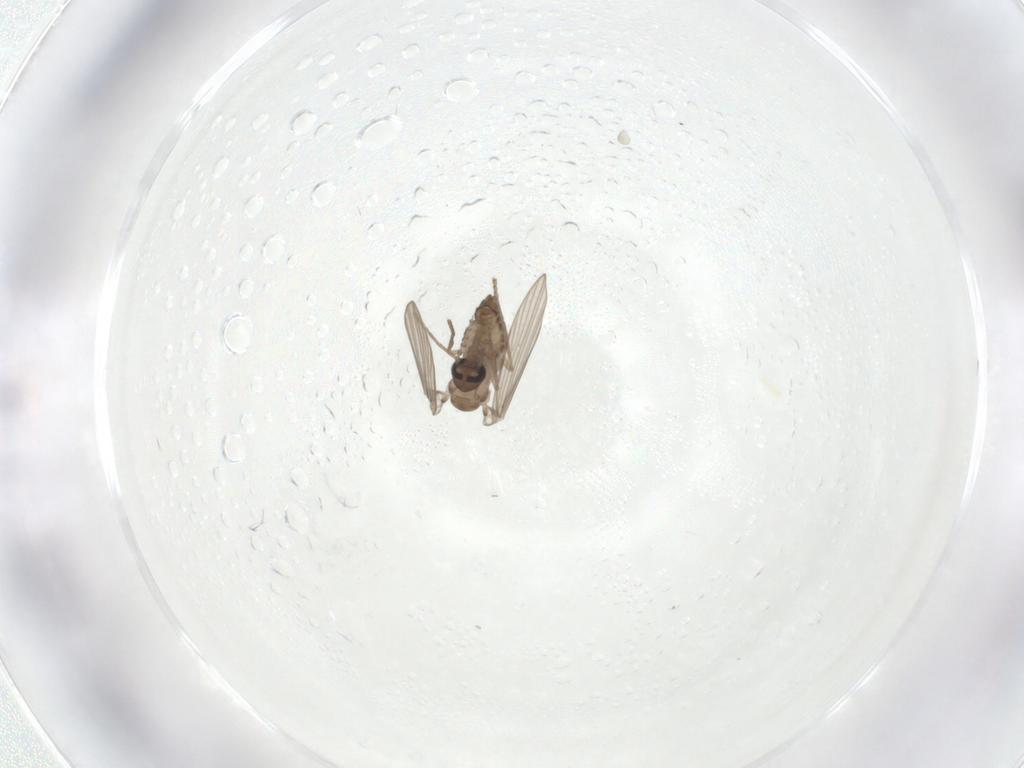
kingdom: Animalia
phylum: Arthropoda
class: Insecta
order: Diptera
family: Psychodidae
